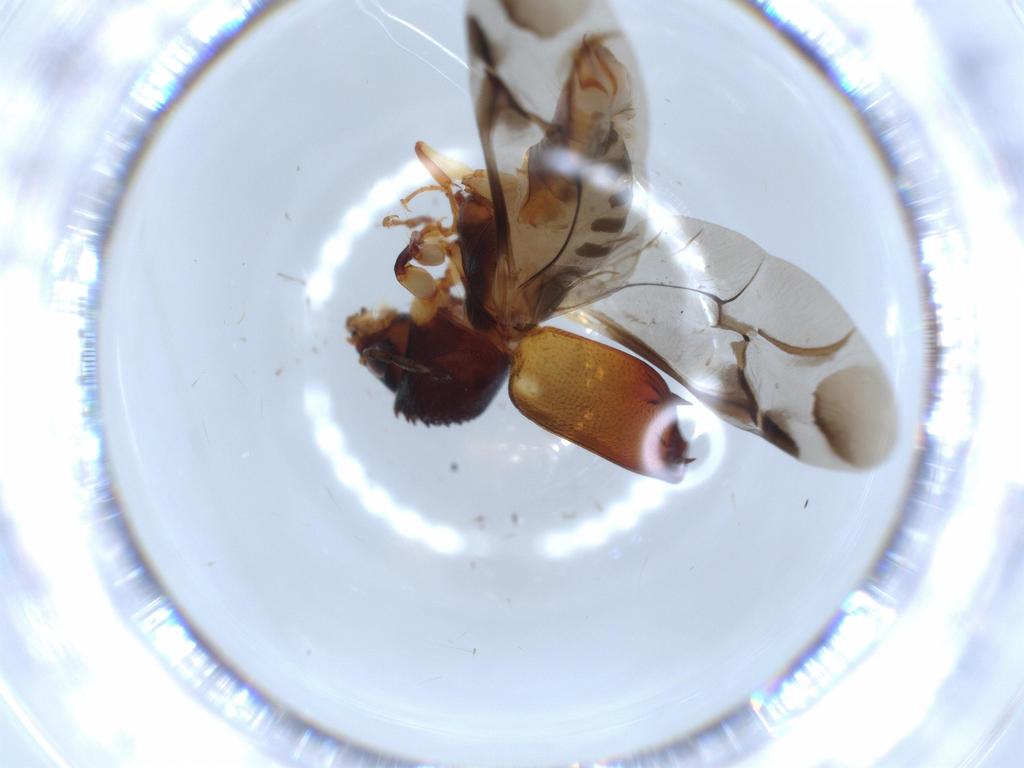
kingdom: Animalia
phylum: Arthropoda
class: Insecta
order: Coleoptera
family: Bostrichidae
